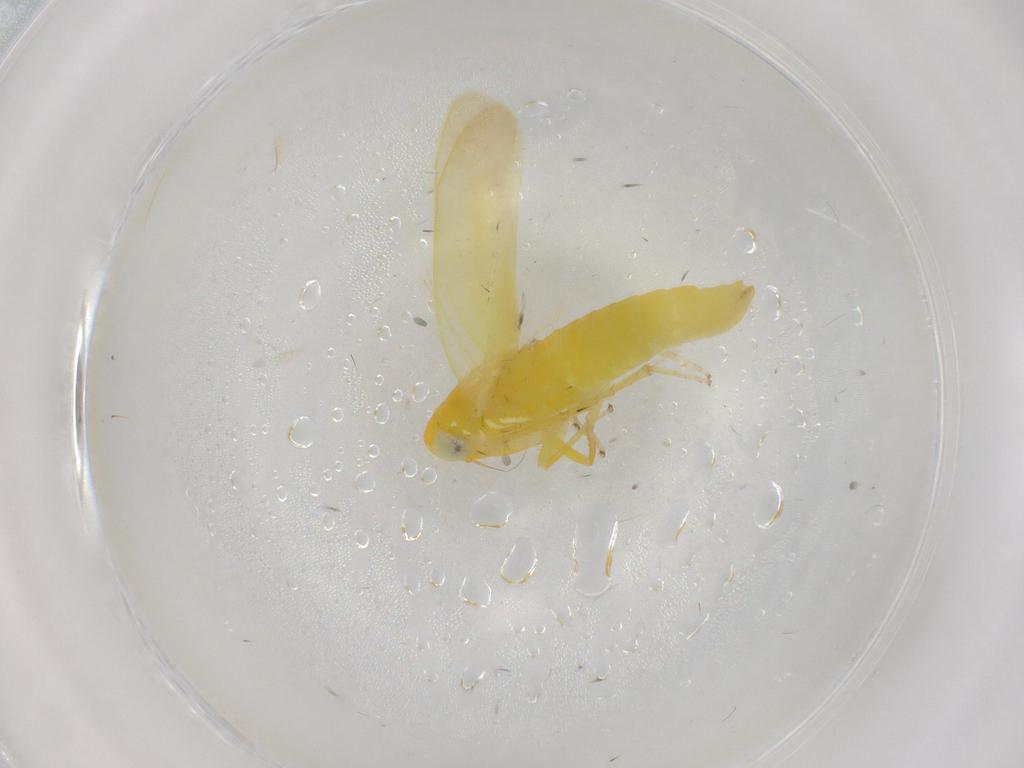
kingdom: Animalia
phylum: Arthropoda
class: Insecta
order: Hemiptera
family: Cicadellidae
